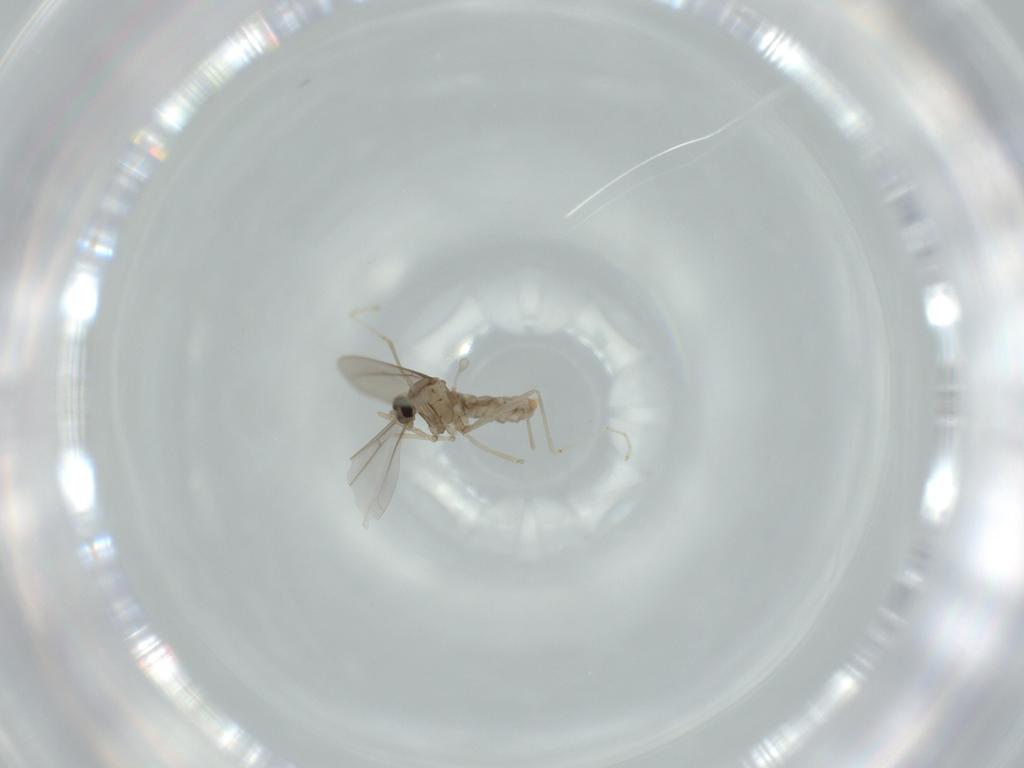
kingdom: Animalia
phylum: Arthropoda
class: Insecta
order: Diptera
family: Cecidomyiidae
